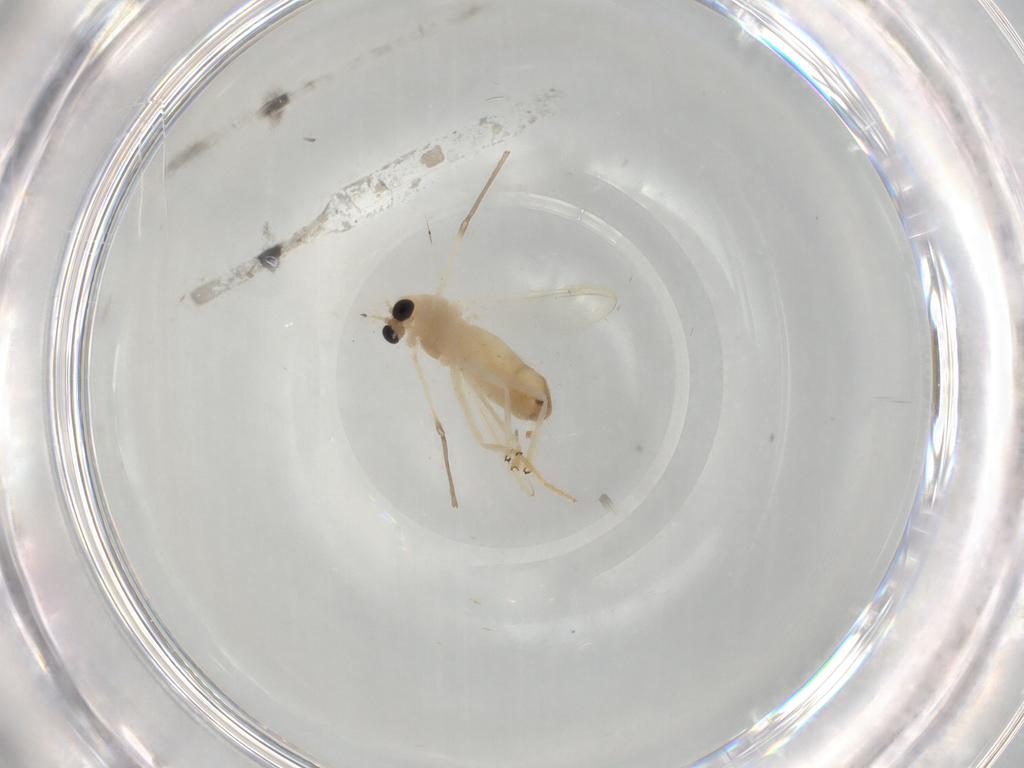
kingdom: Animalia
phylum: Arthropoda
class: Insecta
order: Diptera
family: Chironomidae
